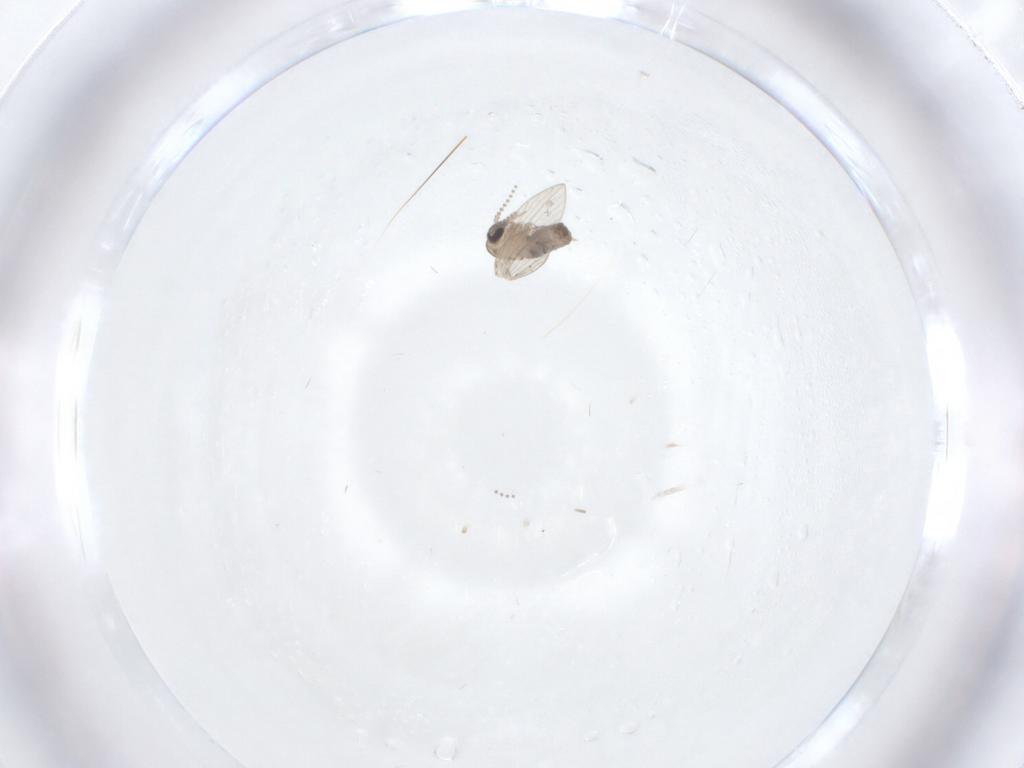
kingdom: Animalia
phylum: Arthropoda
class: Insecta
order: Diptera
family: Psychodidae
